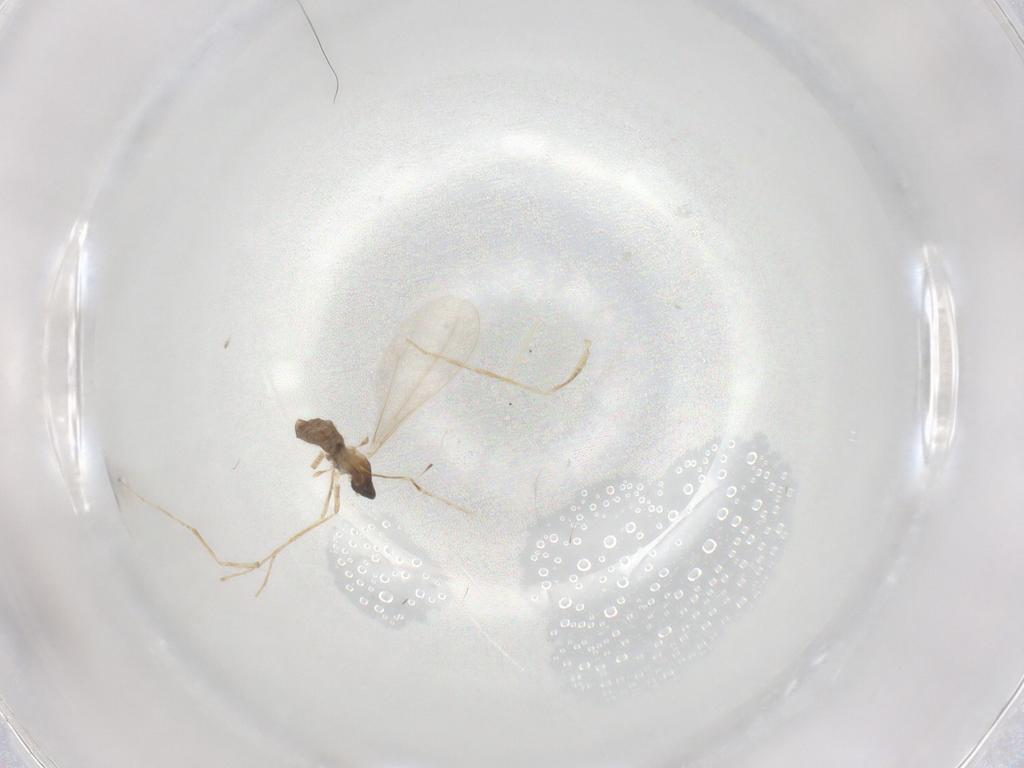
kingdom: Animalia
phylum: Arthropoda
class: Insecta
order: Diptera
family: Cecidomyiidae
